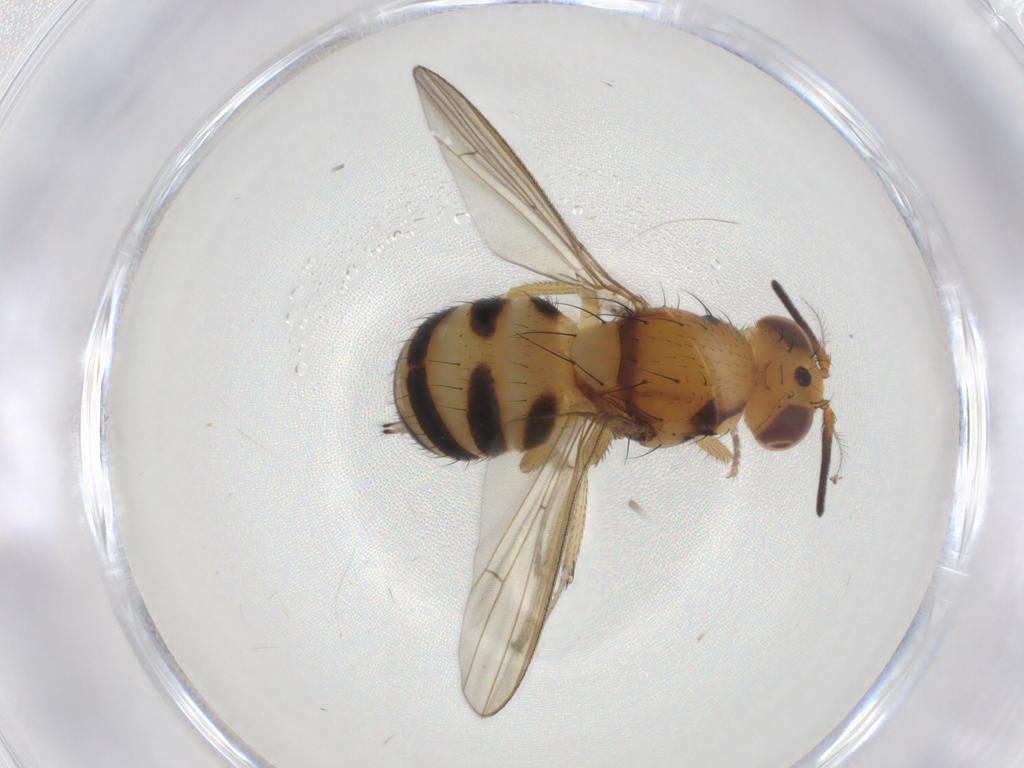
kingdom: Animalia
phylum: Arthropoda
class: Insecta
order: Diptera
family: Lauxaniidae
